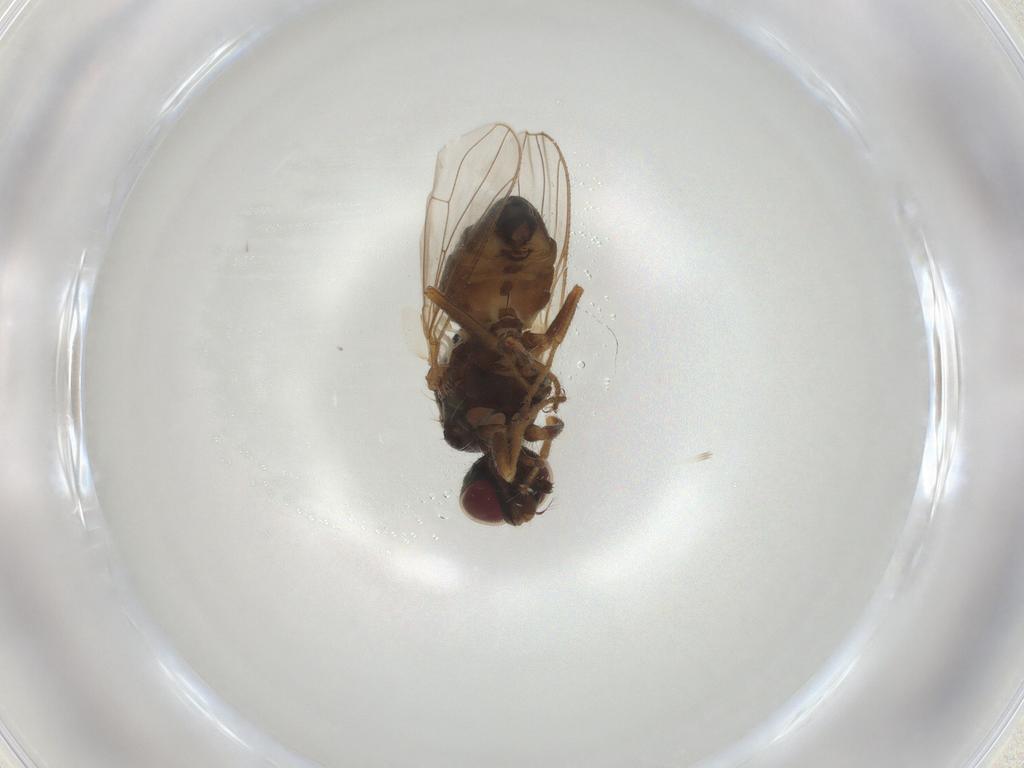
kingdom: Animalia
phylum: Arthropoda
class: Insecta
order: Diptera
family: Muscidae
